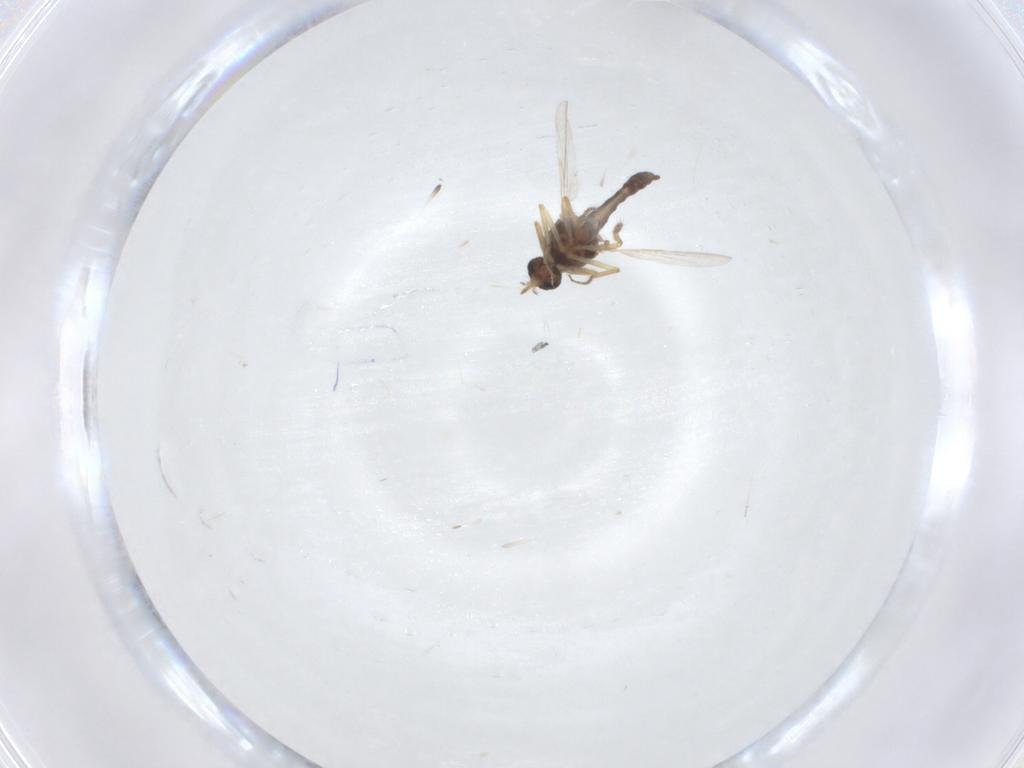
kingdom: Animalia
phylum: Arthropoda
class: Insecta
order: Diptera
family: Ceratopogonidae
